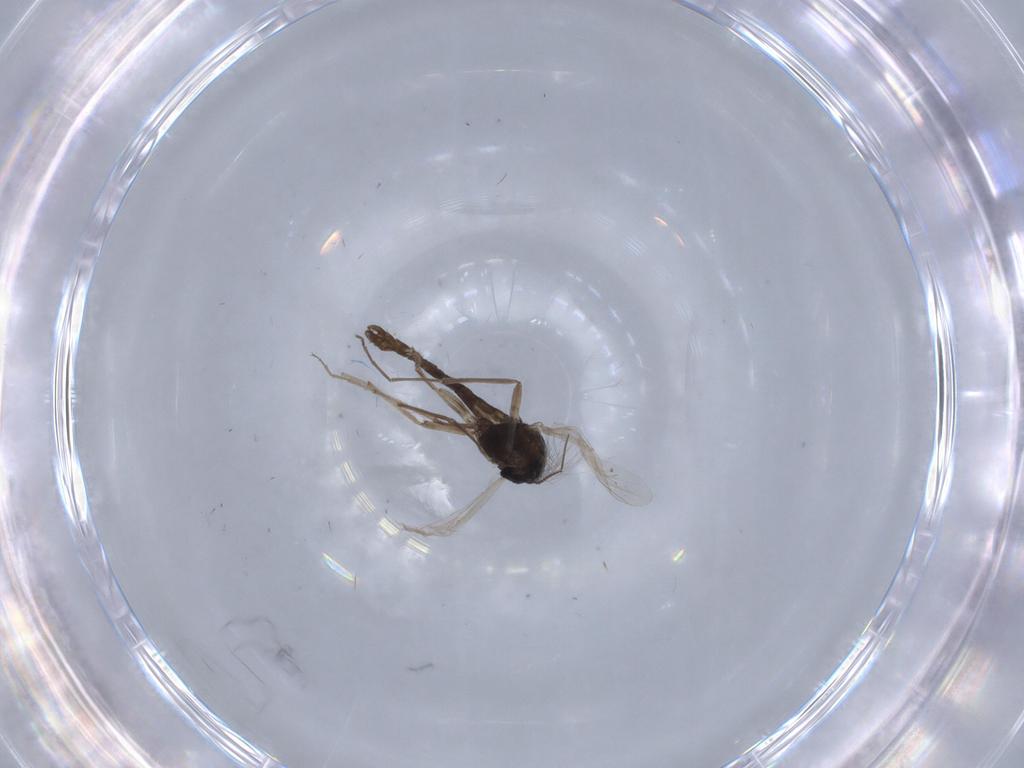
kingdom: Animalia
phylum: Arthropoda
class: Insecta
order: Diptera
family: Chironomidae
